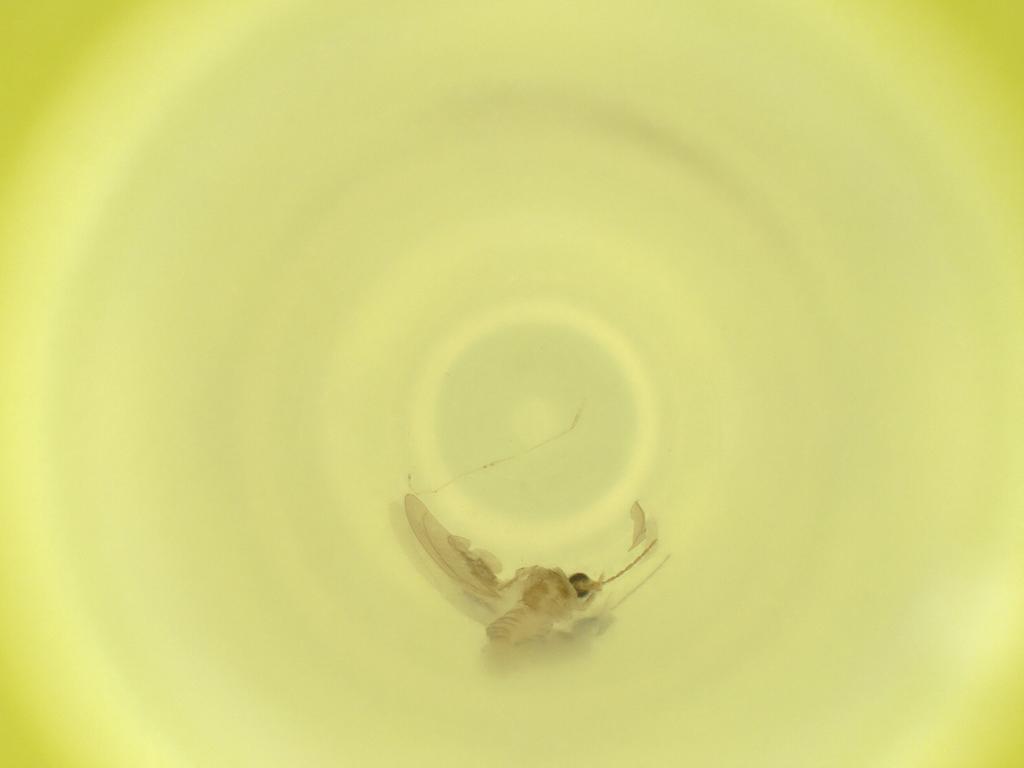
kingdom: Animalia
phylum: Arthropoda
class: Insecta
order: Diptera
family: Cecidomyiidae
